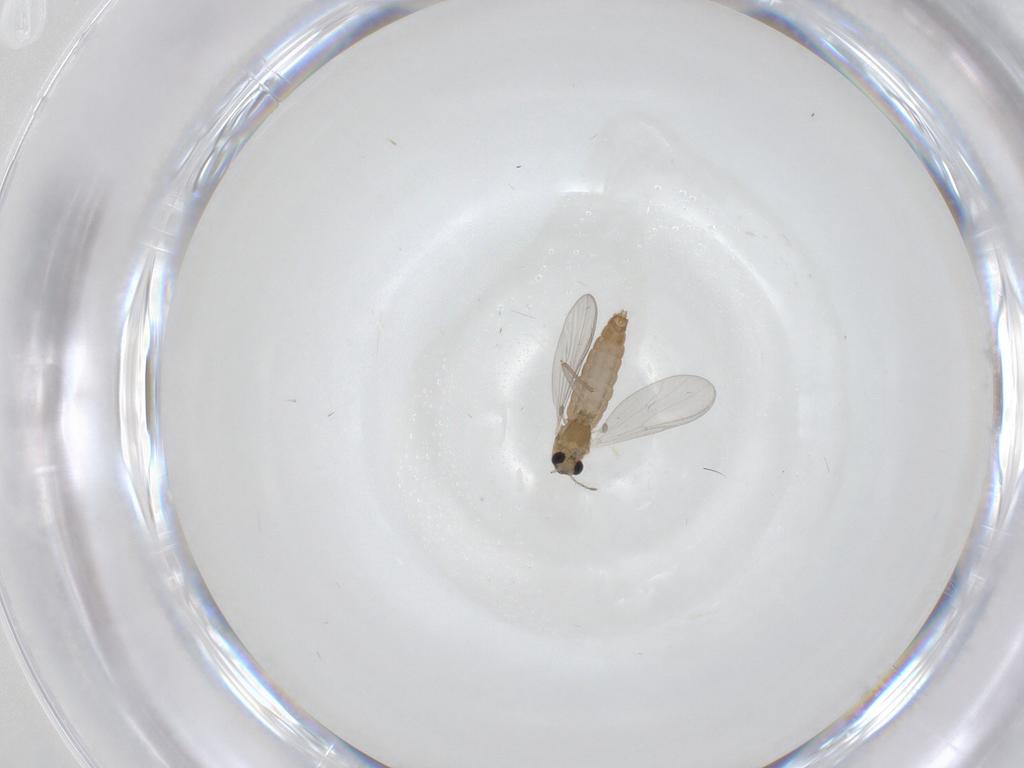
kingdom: Animalia
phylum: Arthropoda
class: Insecta
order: Diptera
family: Chironomidae
